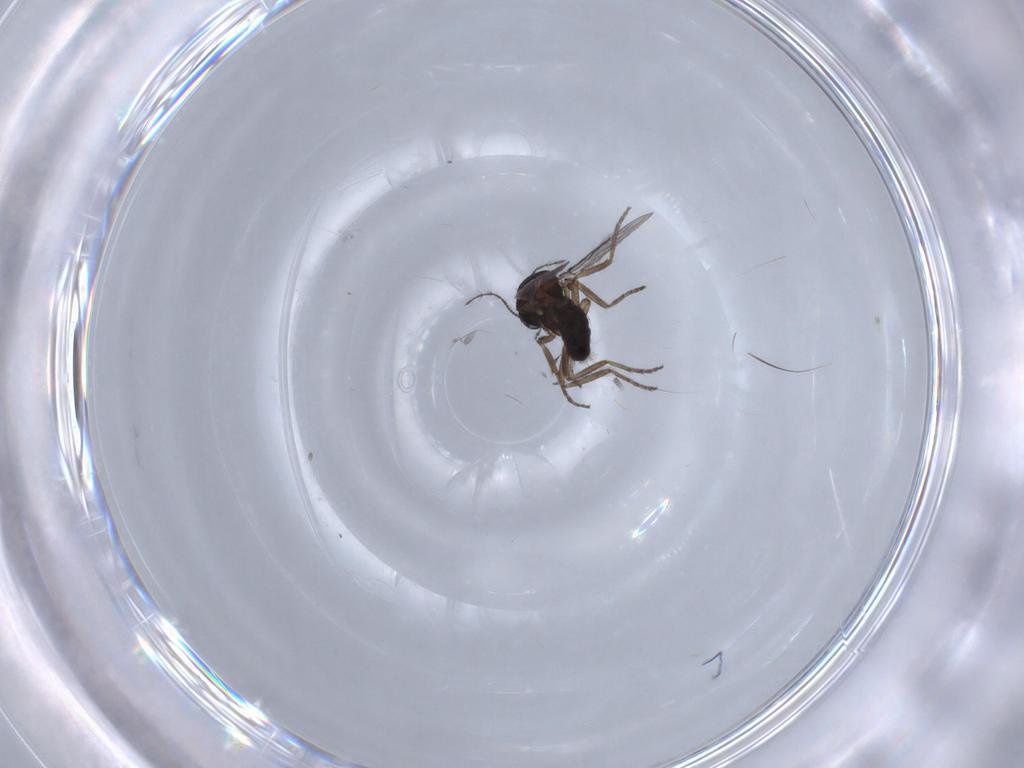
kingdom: Animalia
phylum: Arthropoda
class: Insecta
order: Diptera
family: Ceratopogonidae
